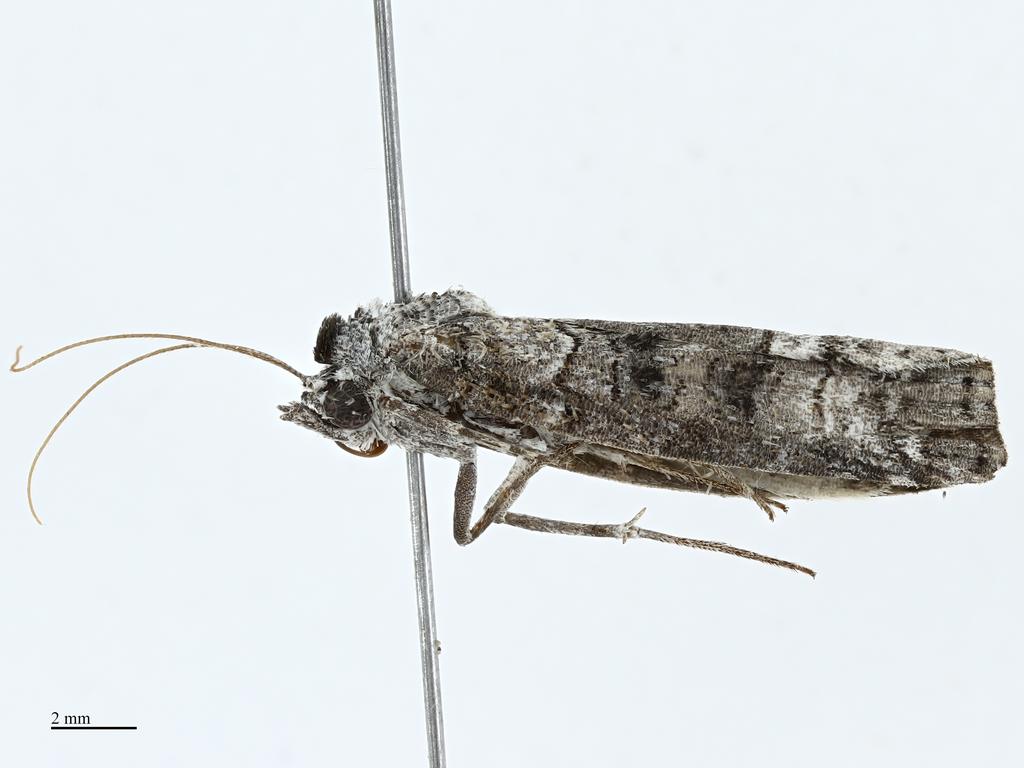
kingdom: Animalia
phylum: Arthropoda
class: Insecta
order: Lepidoptera
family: Nolidae
